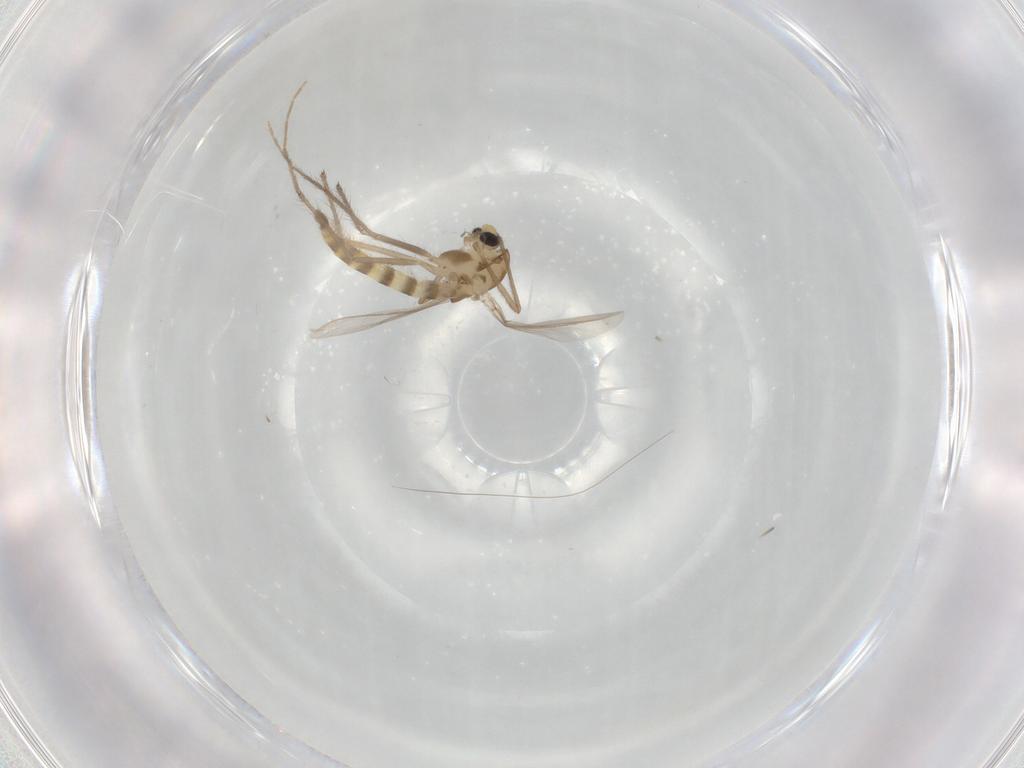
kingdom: Animalia
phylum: Arthropoda
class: Insecta
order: Diptera
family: Chironomidae
